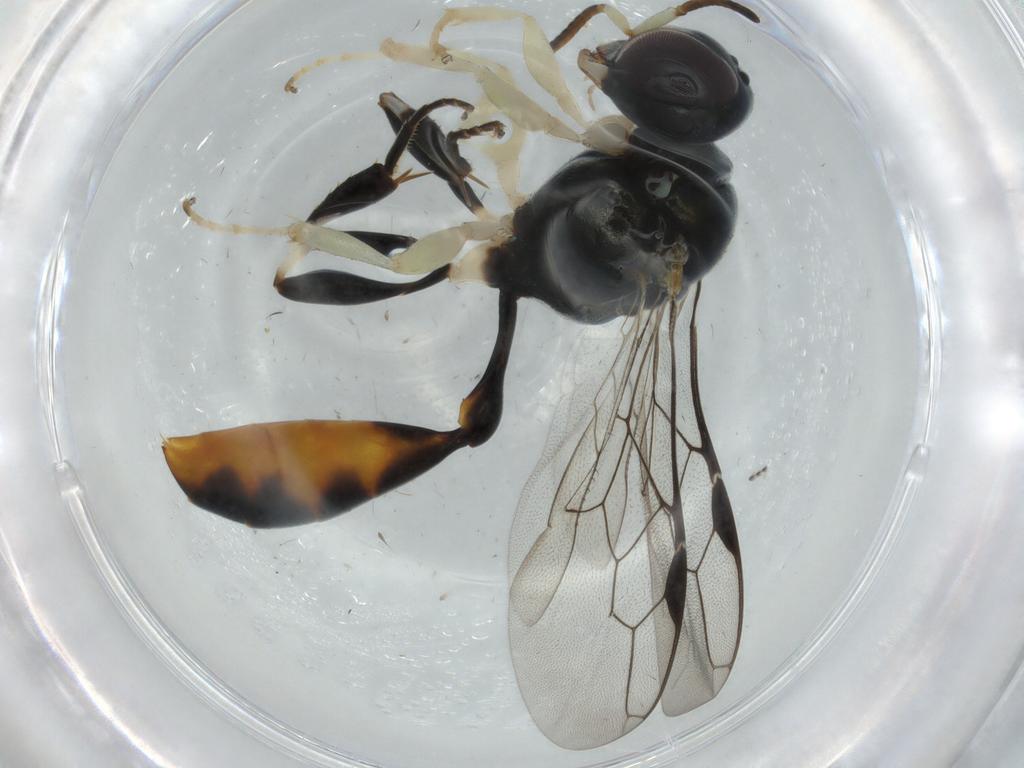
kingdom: Animalia
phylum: Arthropoda
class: Insecta
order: Hymenoptera
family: Crabronidae
